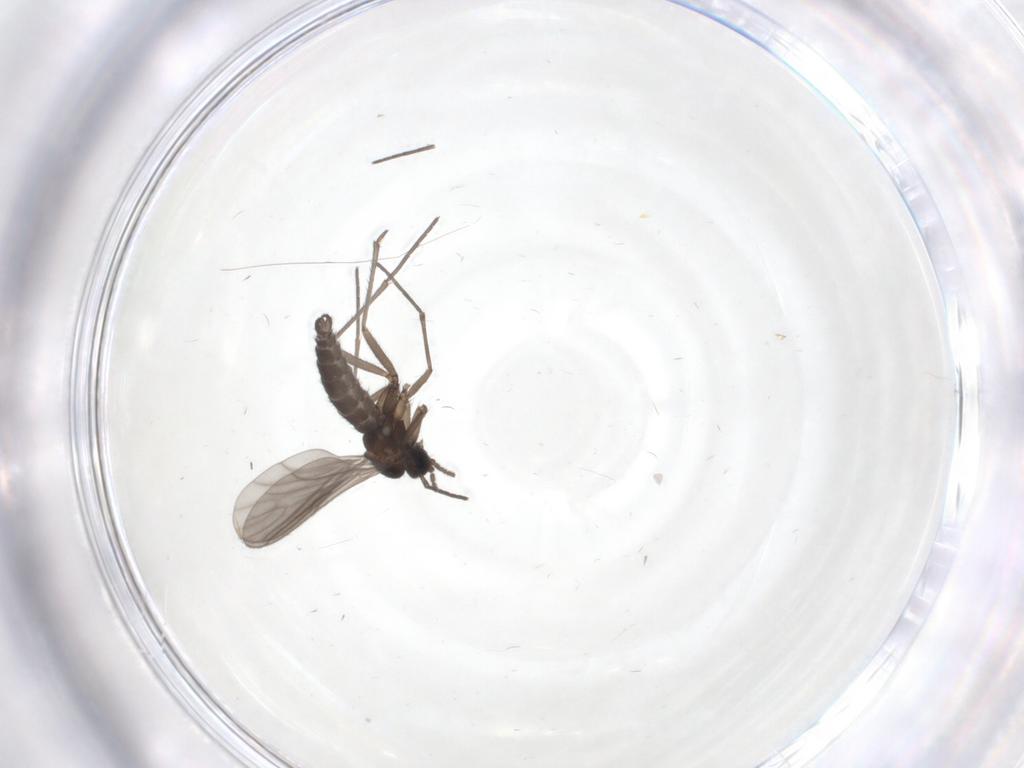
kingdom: Animalia
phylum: Arthropoda
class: Insecta
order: Diptera
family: Sciaridae
